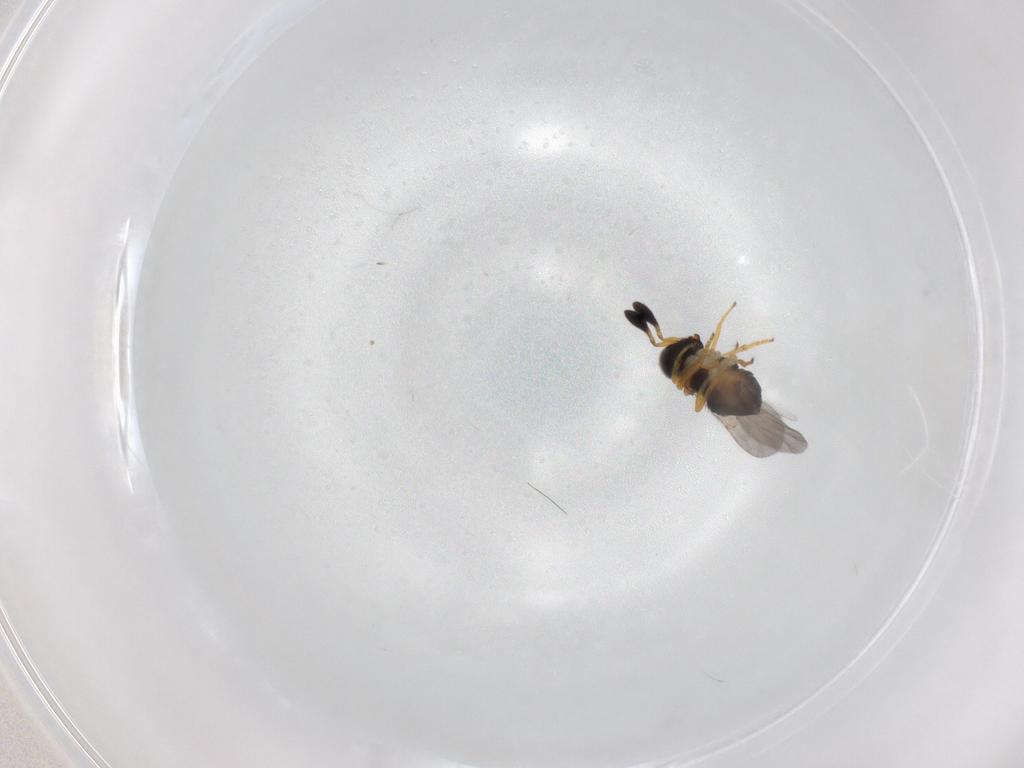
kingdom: Animalia
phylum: Arthropoda
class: Insecta
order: Hymenoptera
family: Encyrtidae
